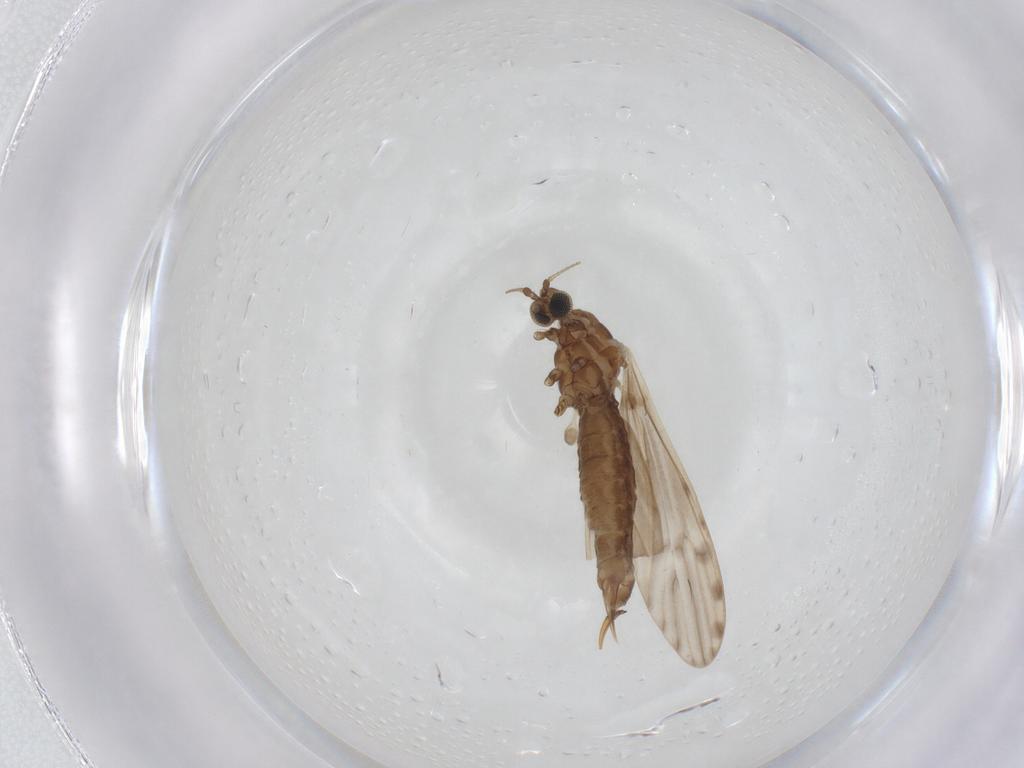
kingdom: Animalia
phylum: Arthropoda
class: Insecta
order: Diptera
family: Limoniidae
